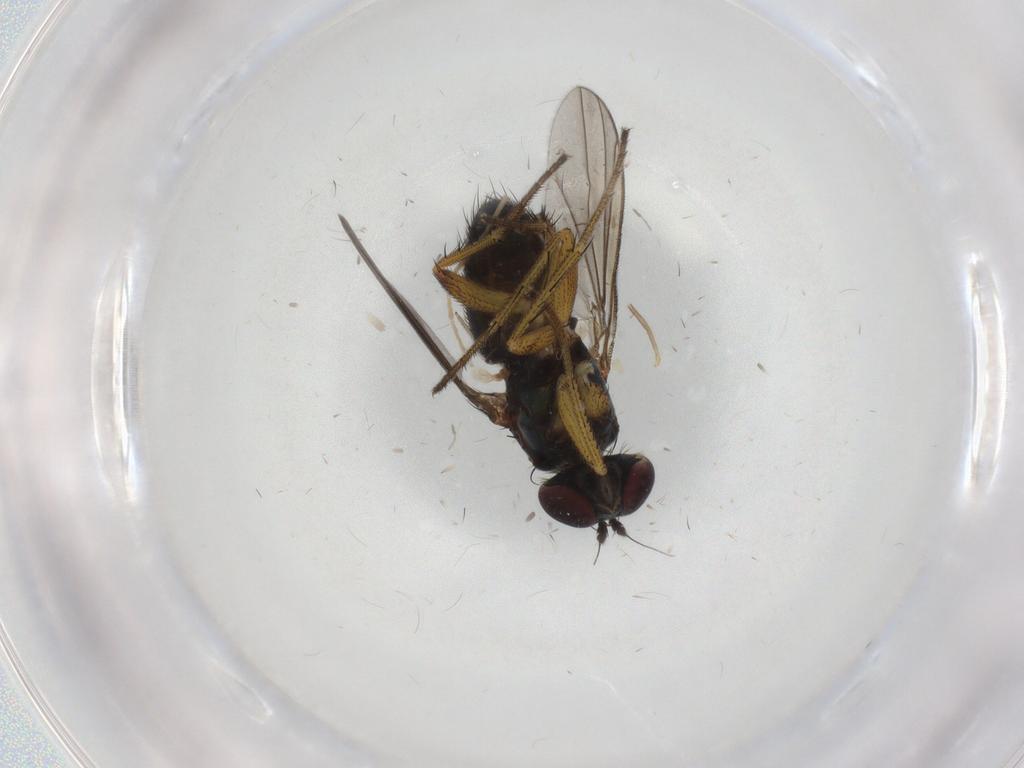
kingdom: Animalia
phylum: Arthropoda
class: Insecta
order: Diptera
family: Dolichopodidae
